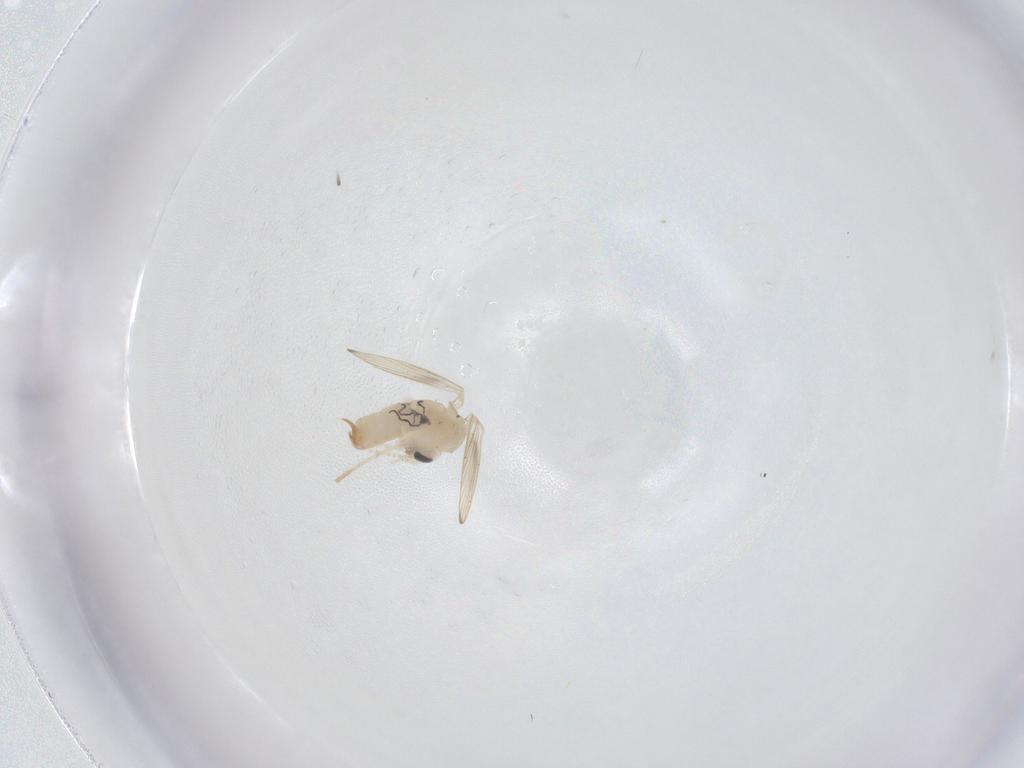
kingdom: Animalia
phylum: Arthropoda
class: Insecta
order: Diptera
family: Psychodidae
